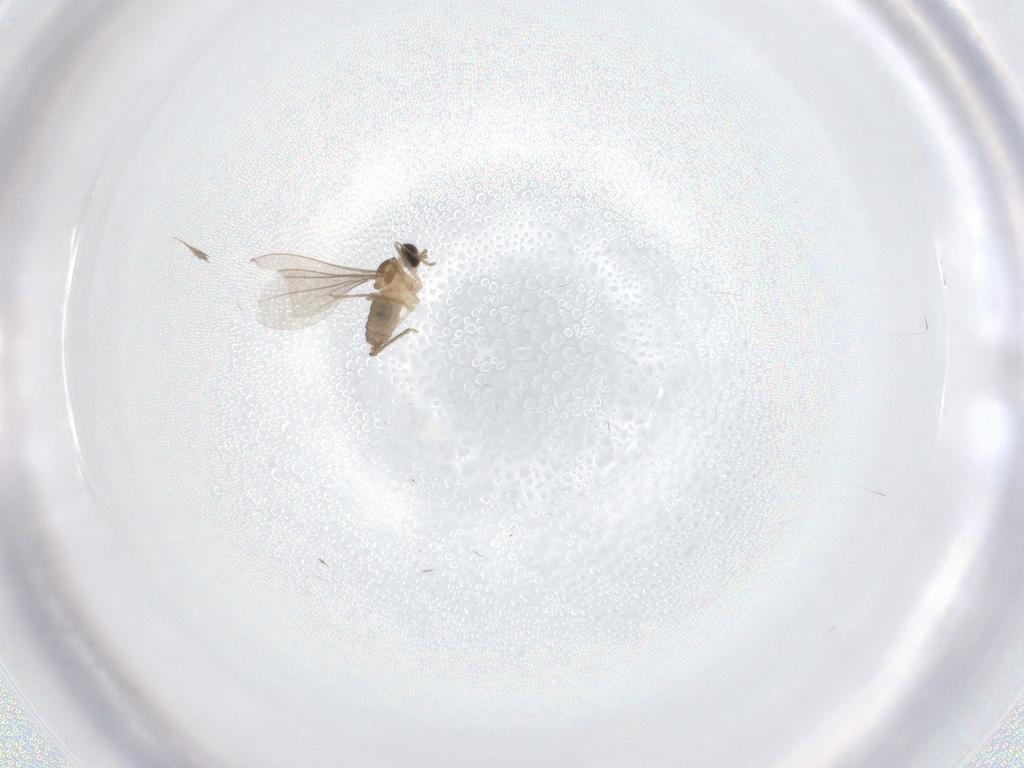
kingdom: Animalia
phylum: Arthropoda
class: Insecta
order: Diptera
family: Cecidomyiidae
